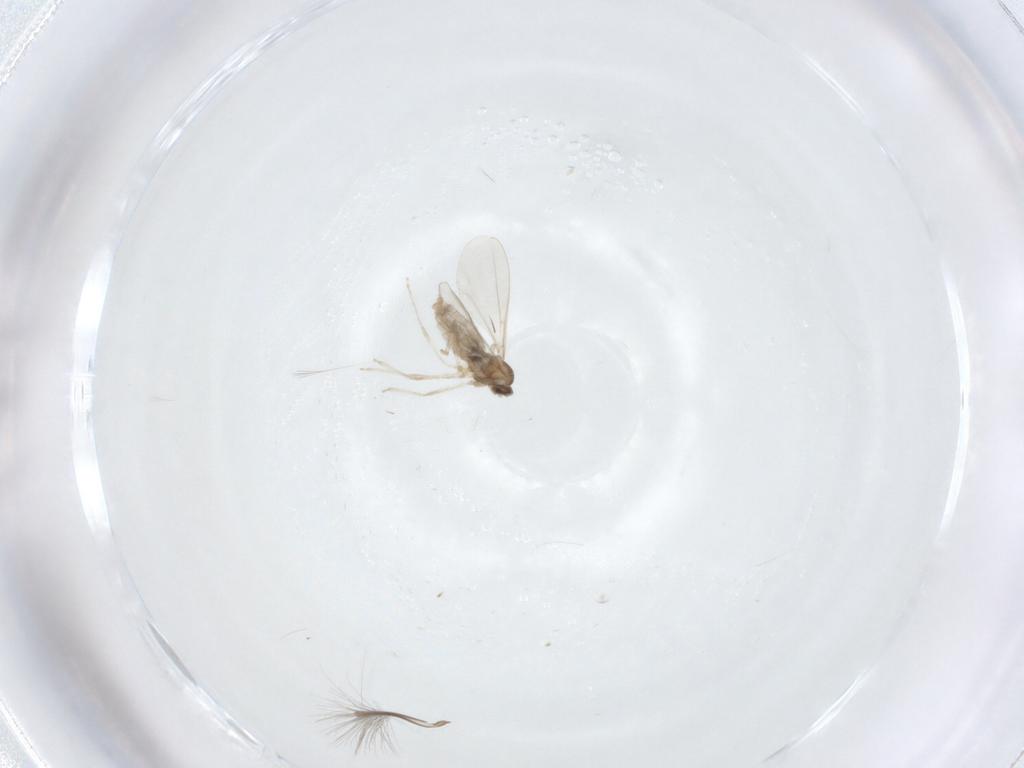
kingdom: Animalia
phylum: Arthropoda
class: Insecta
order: Diptera
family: Cecidomyiidae
